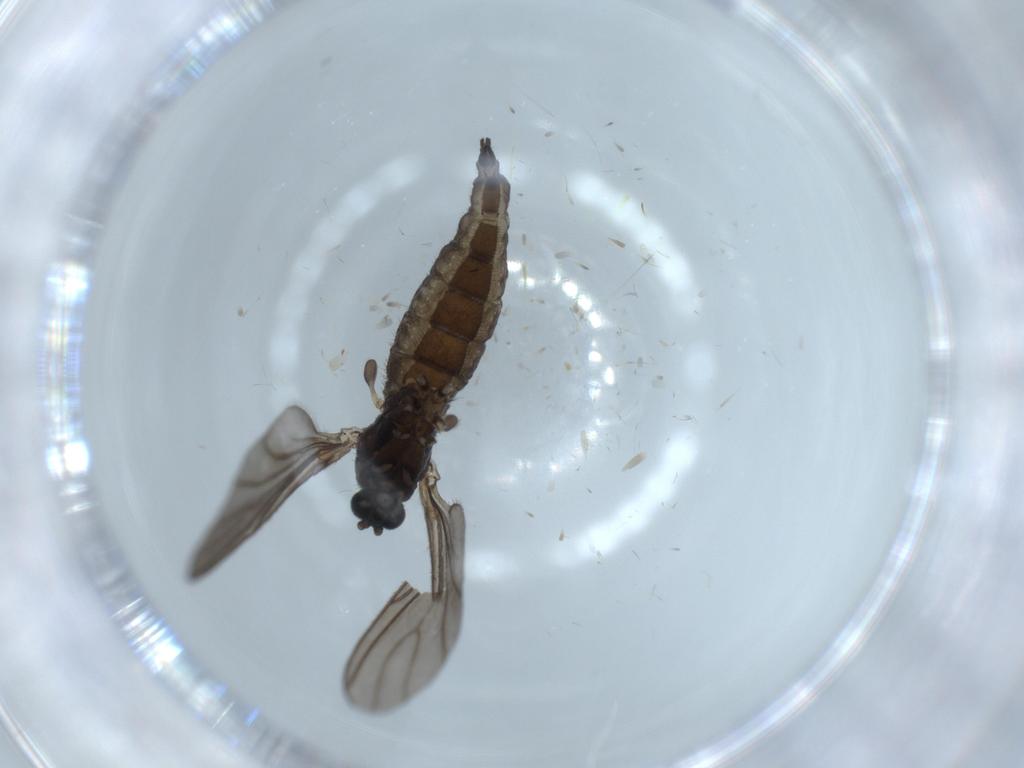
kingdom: Animalia
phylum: Arthropoda
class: Insecta
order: Diptera
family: Sciaridae
